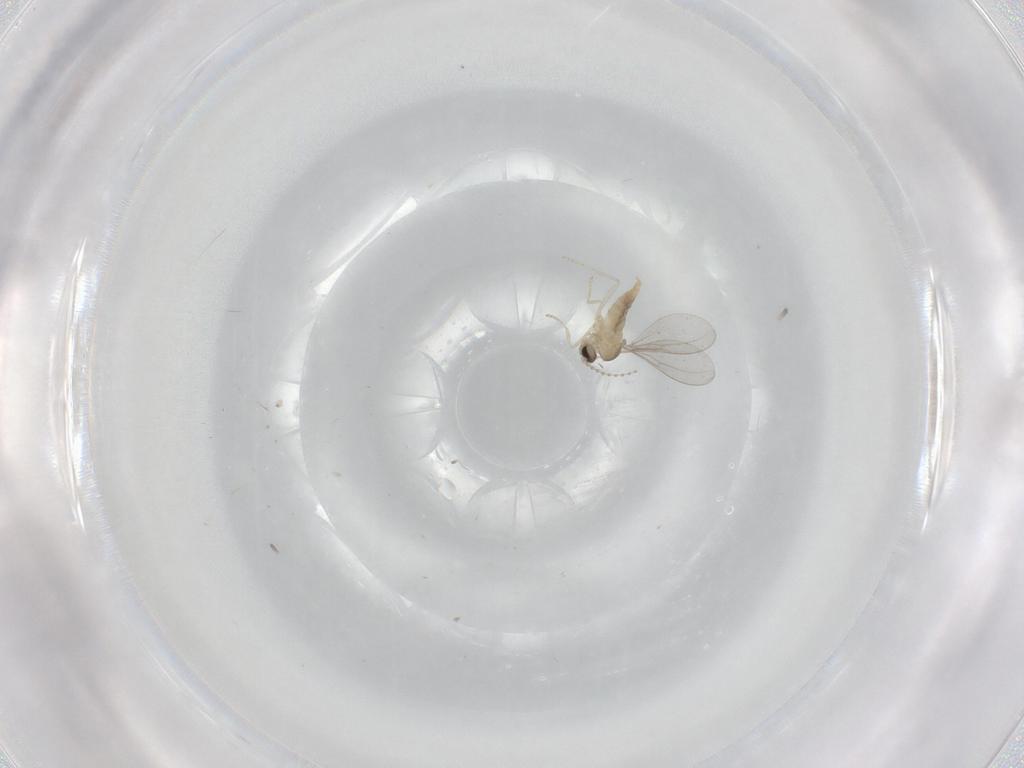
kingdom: Animalia
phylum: Arthropoda
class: Insecta
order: Diptera
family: Cecidomyiidae
